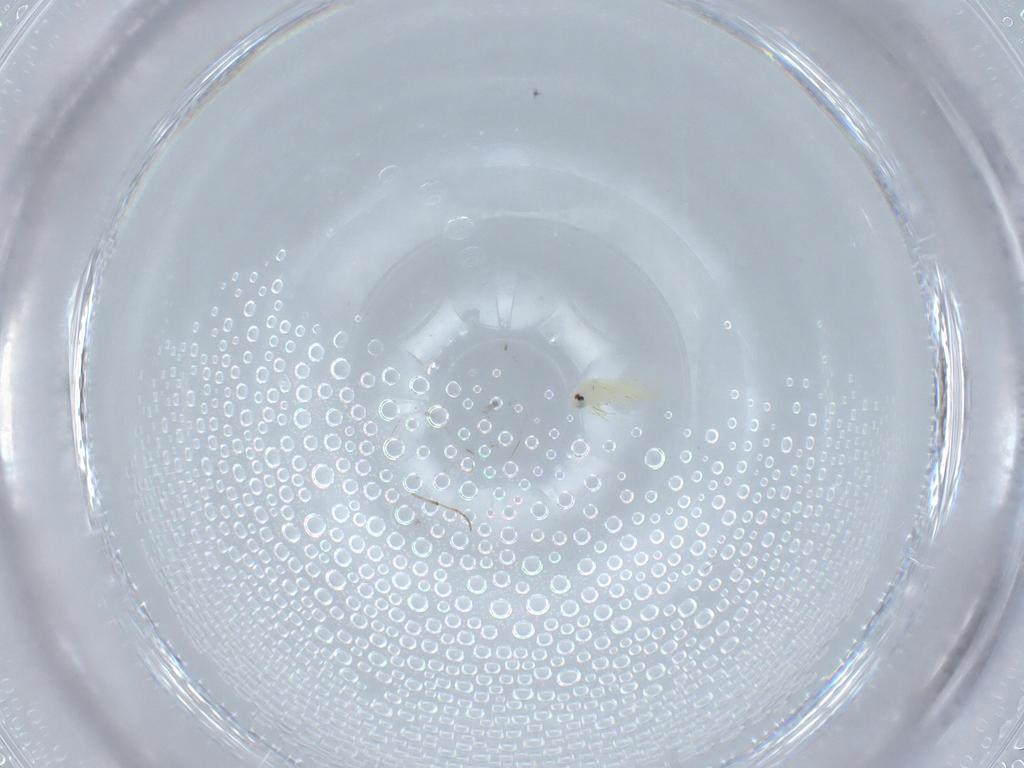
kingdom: Animalia
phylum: Arthropoda
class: Insecta
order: Hemiptera
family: Aleyrodidae
